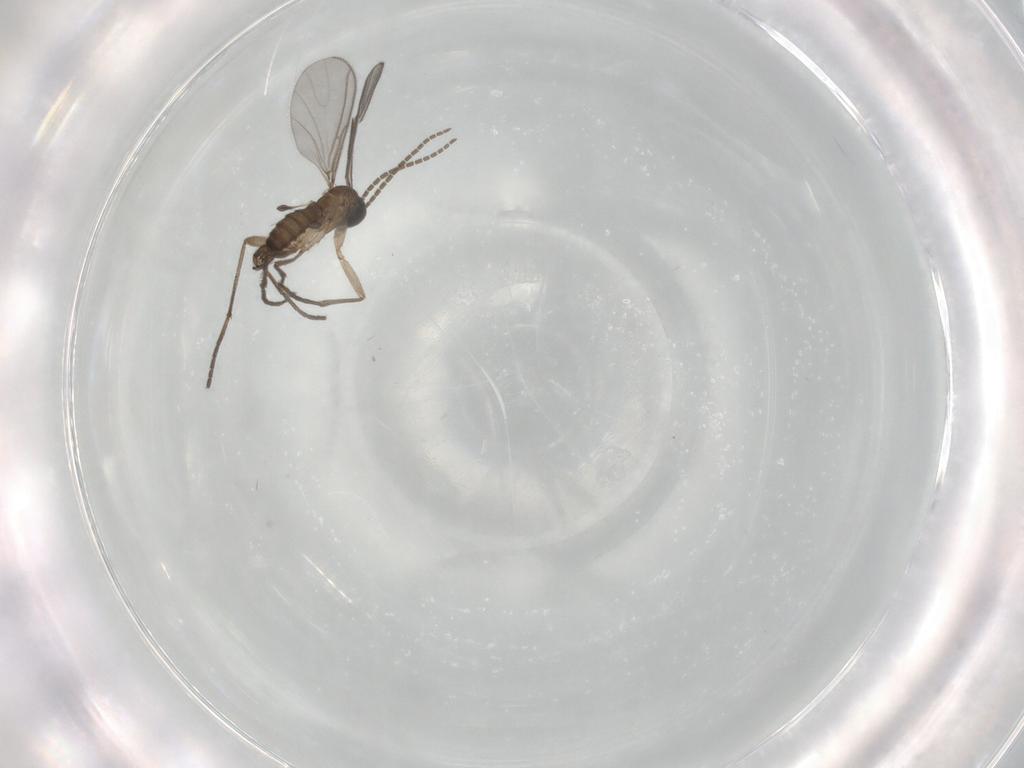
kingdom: Animalia
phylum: Arthropoda
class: Insecta
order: Diptera
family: Sciaridae
